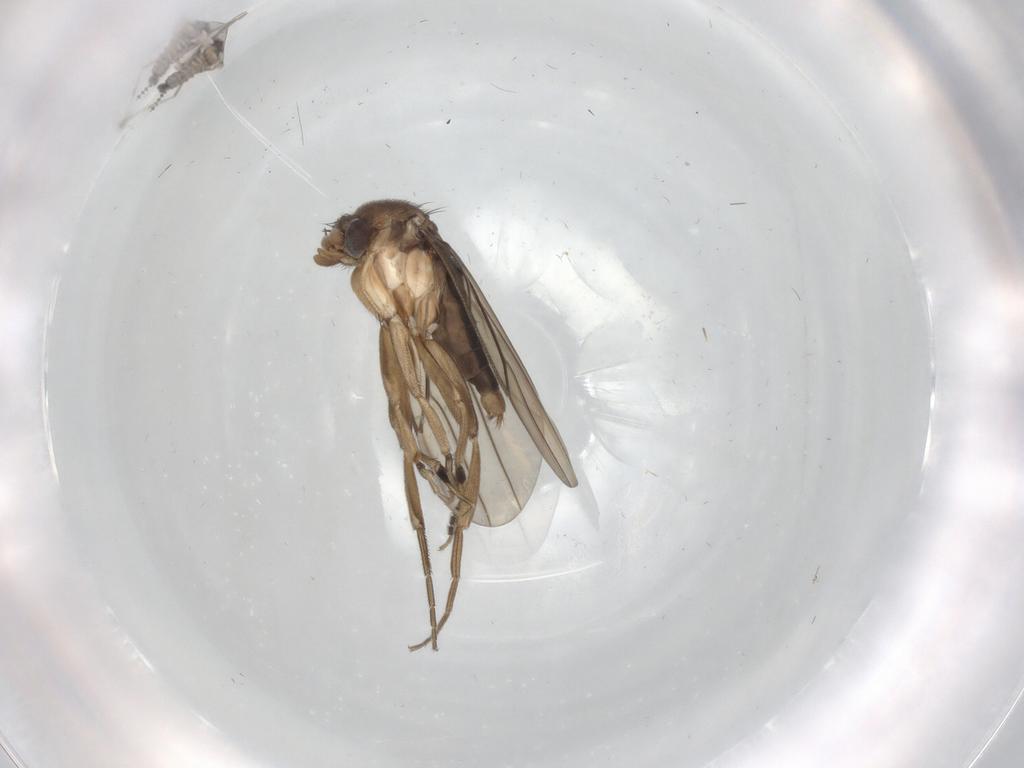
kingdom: Animalia
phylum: Arthropoda
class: Insecta
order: Diptera
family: Phoridae
